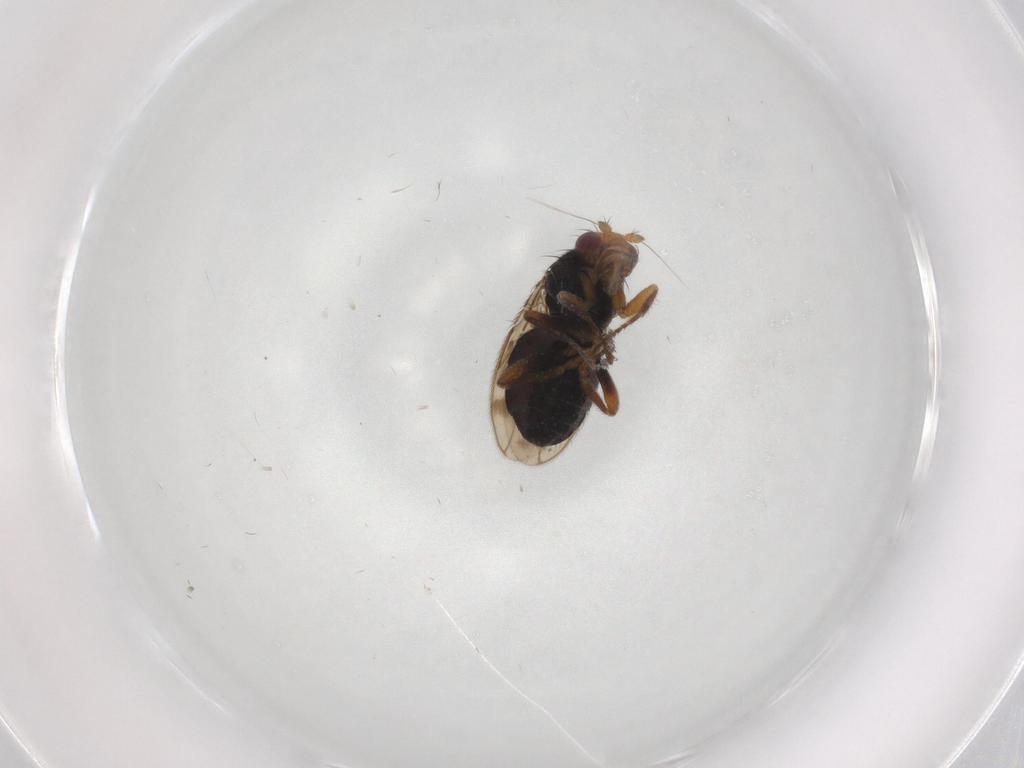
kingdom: Animalia
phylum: Arthropoda
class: Insecta
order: Diptera
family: Sphaeroceridae
